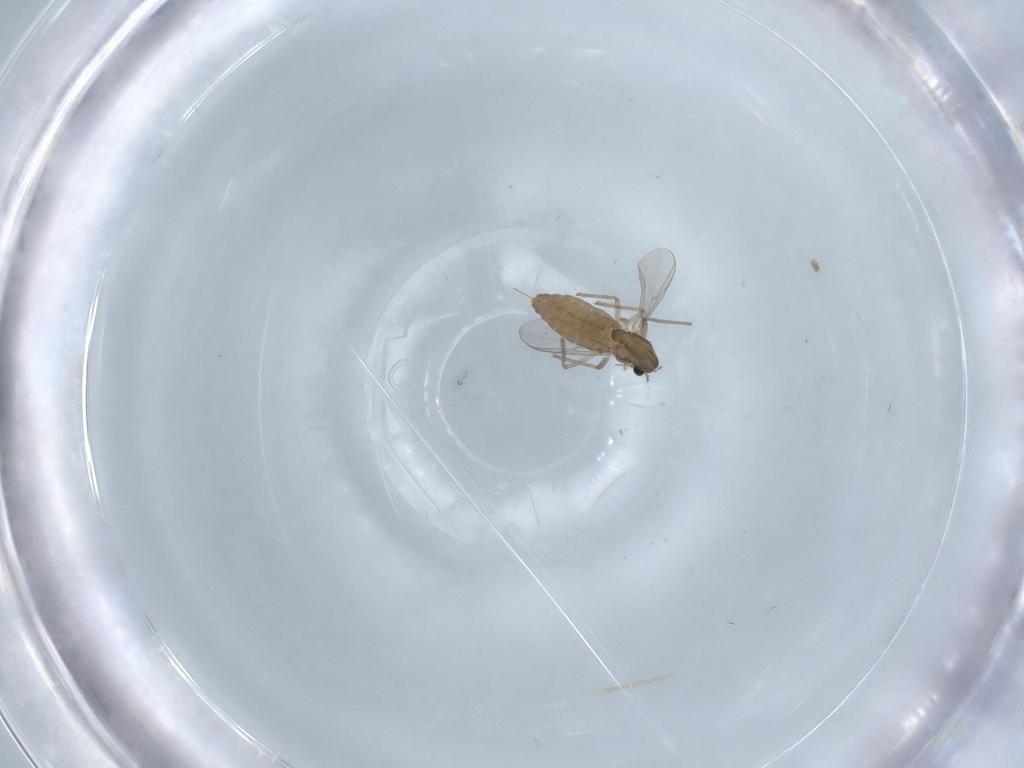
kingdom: Animalia
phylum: Arthropoda
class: Insecta
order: Diptera
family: Chironomidae
